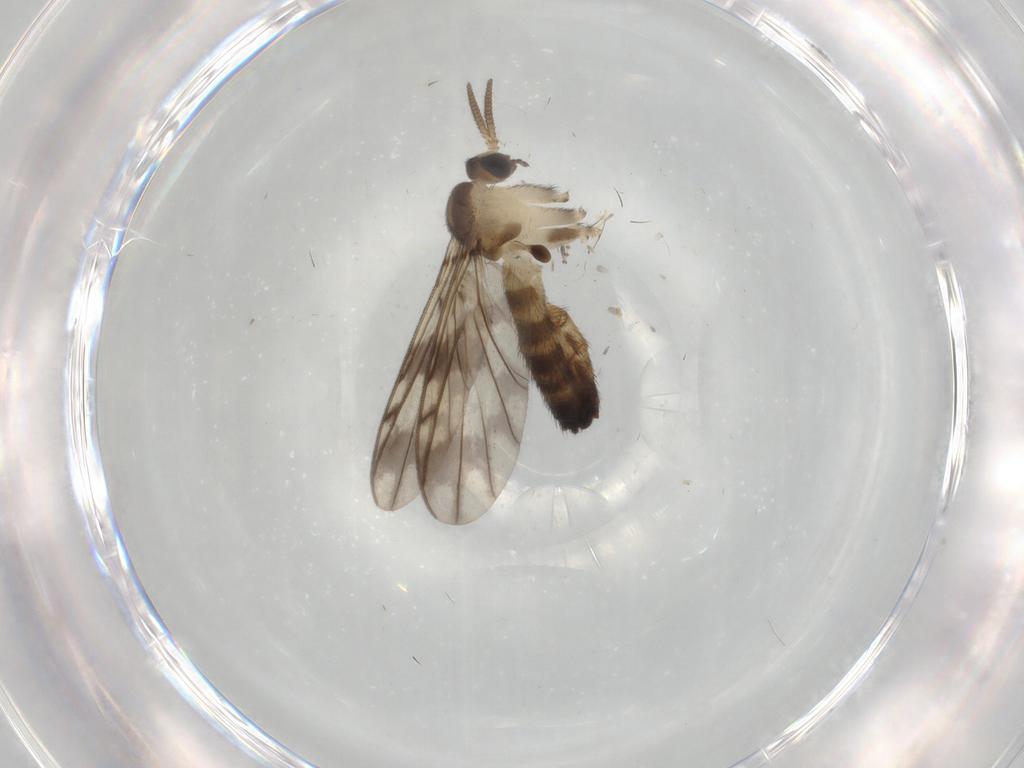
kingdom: Animalia
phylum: Arthropoda
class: Insecta
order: Diptera
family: Keroplatidae
